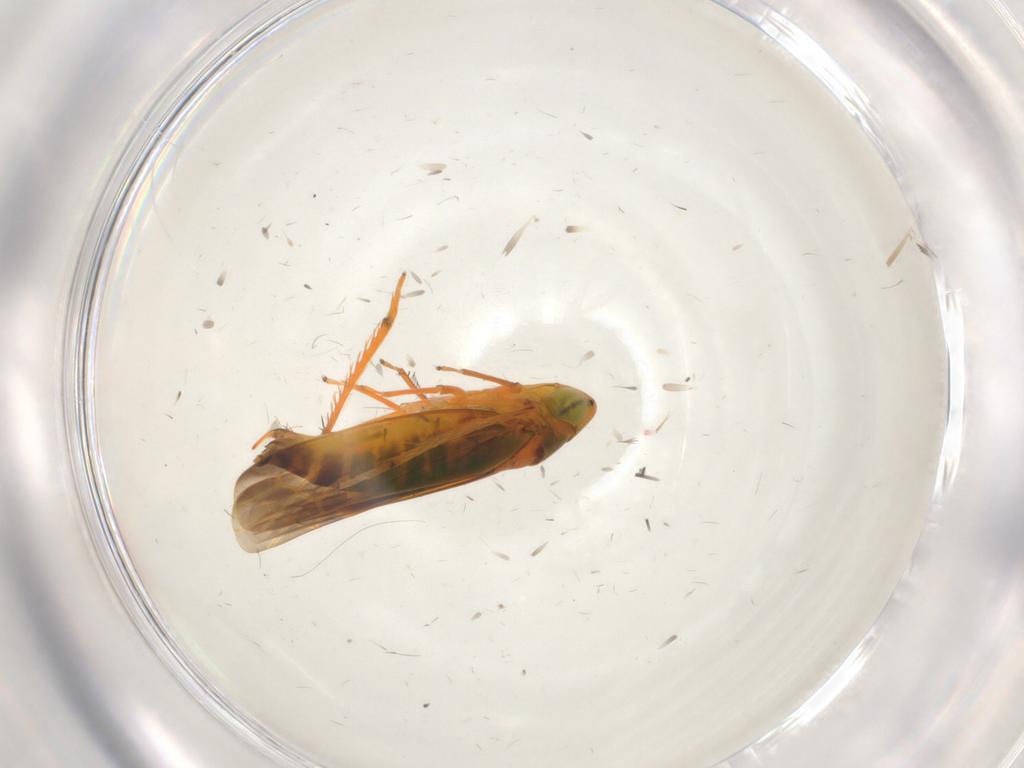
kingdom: Animalia
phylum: Arthropoda
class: Insecta
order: Hemiptera
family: Cicadellidae
